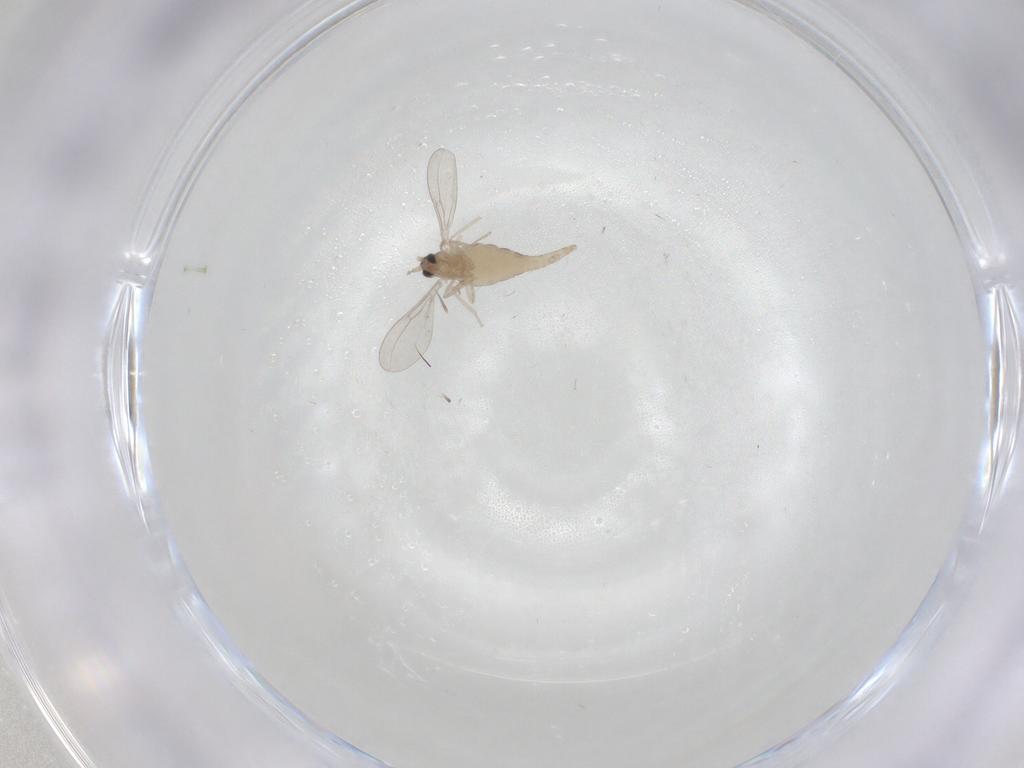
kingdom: Animalia
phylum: Arthropoda
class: Insecta
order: Diptera
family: Cecidomyiidae
